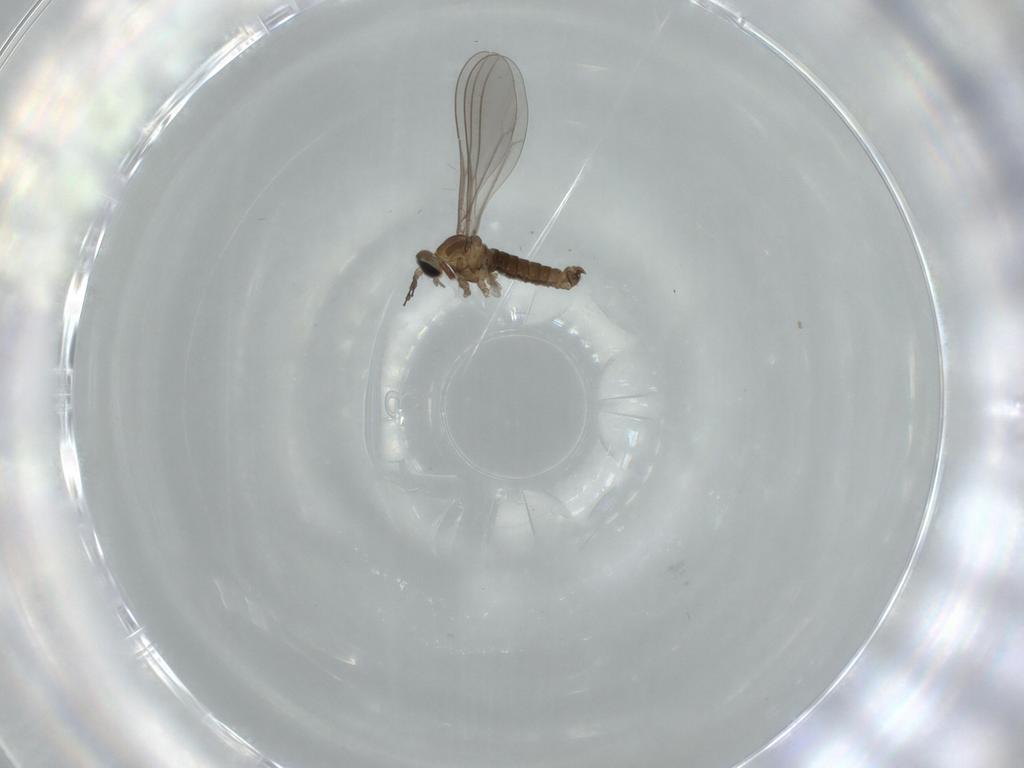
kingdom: Animalia
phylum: Arthropoda
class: Insecta
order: Diptera
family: Cecidomyiidae
